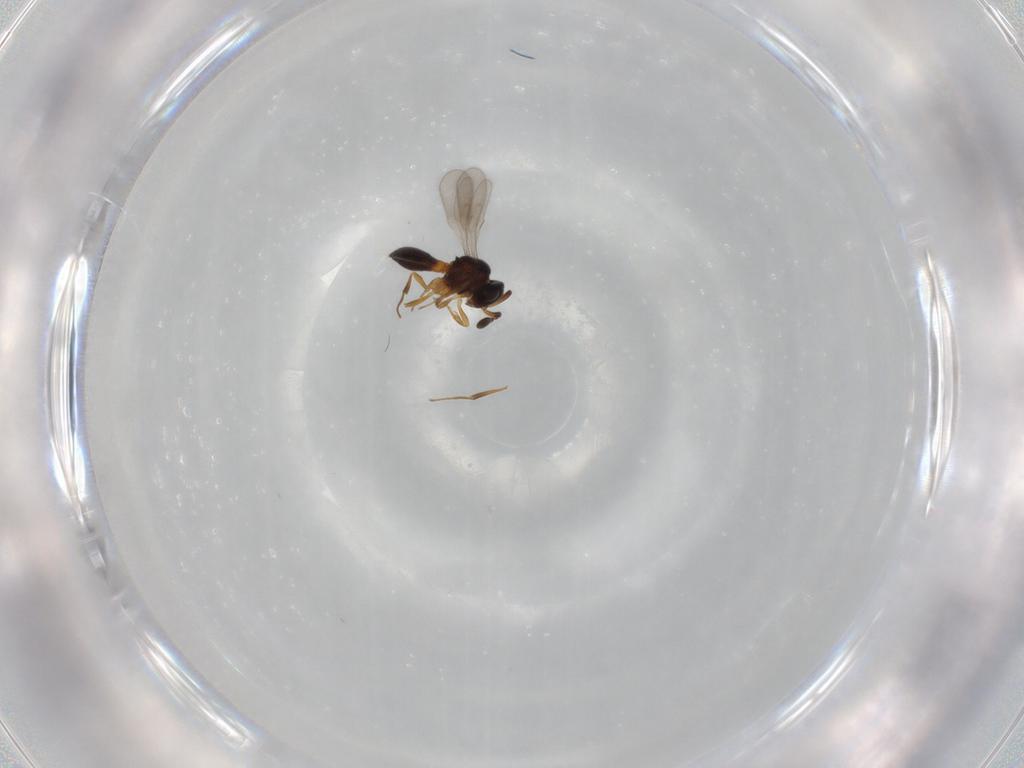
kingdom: Animalia
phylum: Arthropoda
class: Insecta
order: Hymenoptera
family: Scelionidae
